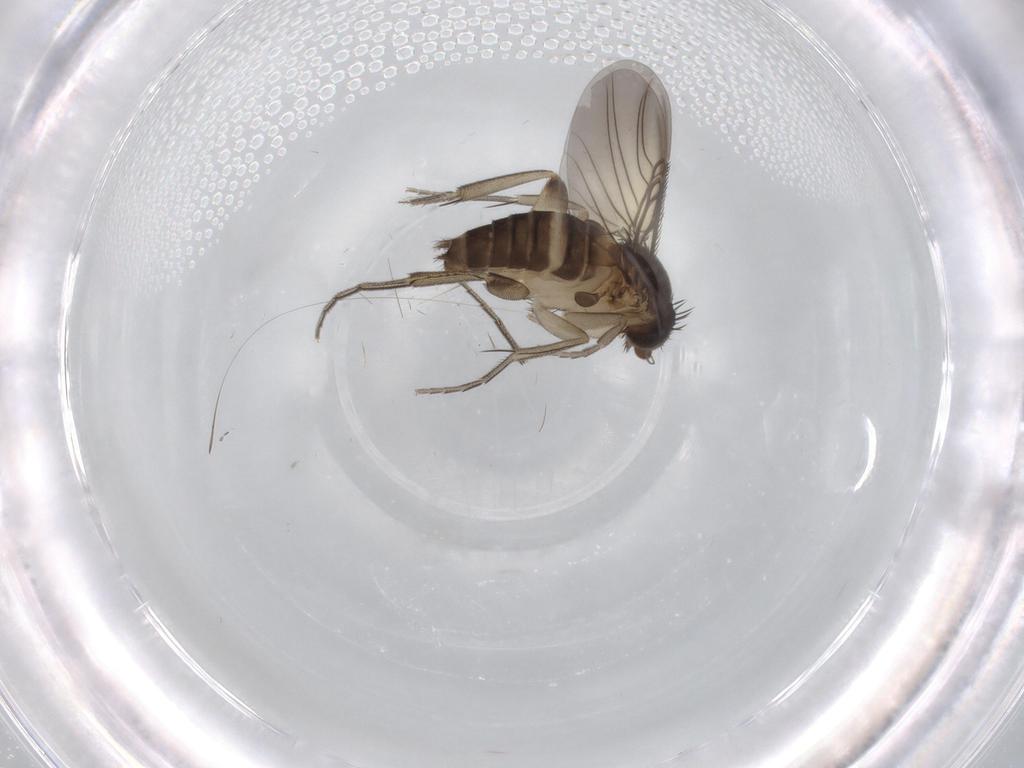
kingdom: Animalia
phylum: Arthropoda
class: Insecta
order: Diptera
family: Phoridae
